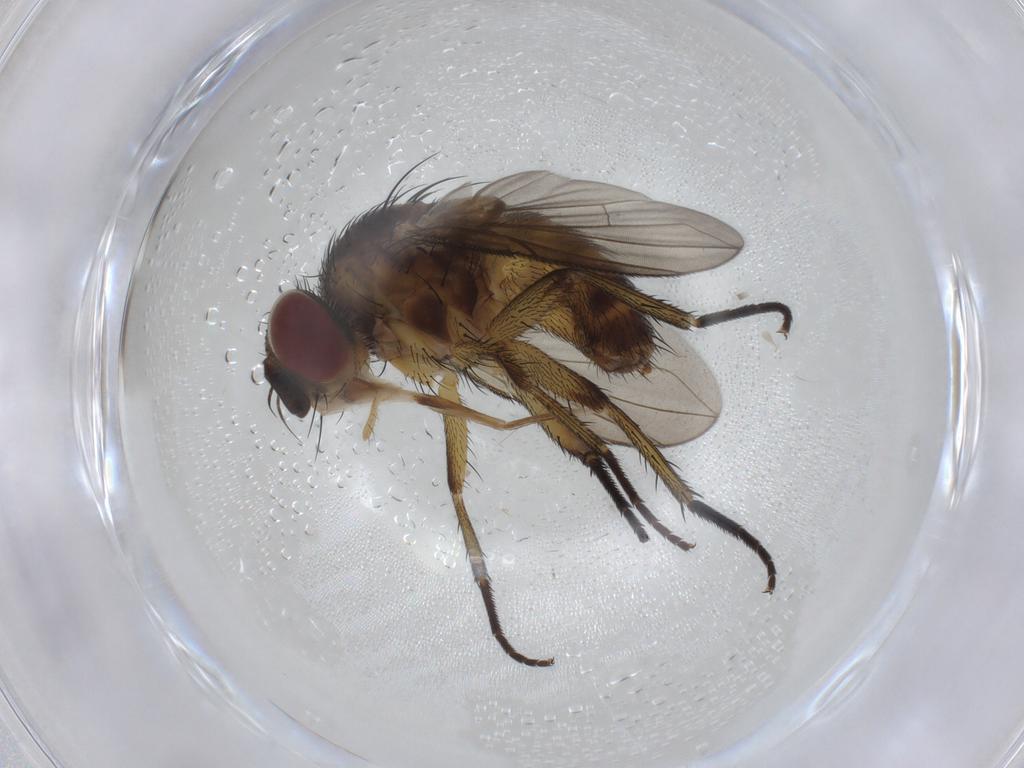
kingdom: Animalia
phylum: Arthropoda
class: Insecta
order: Diptera
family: Tachinidae
